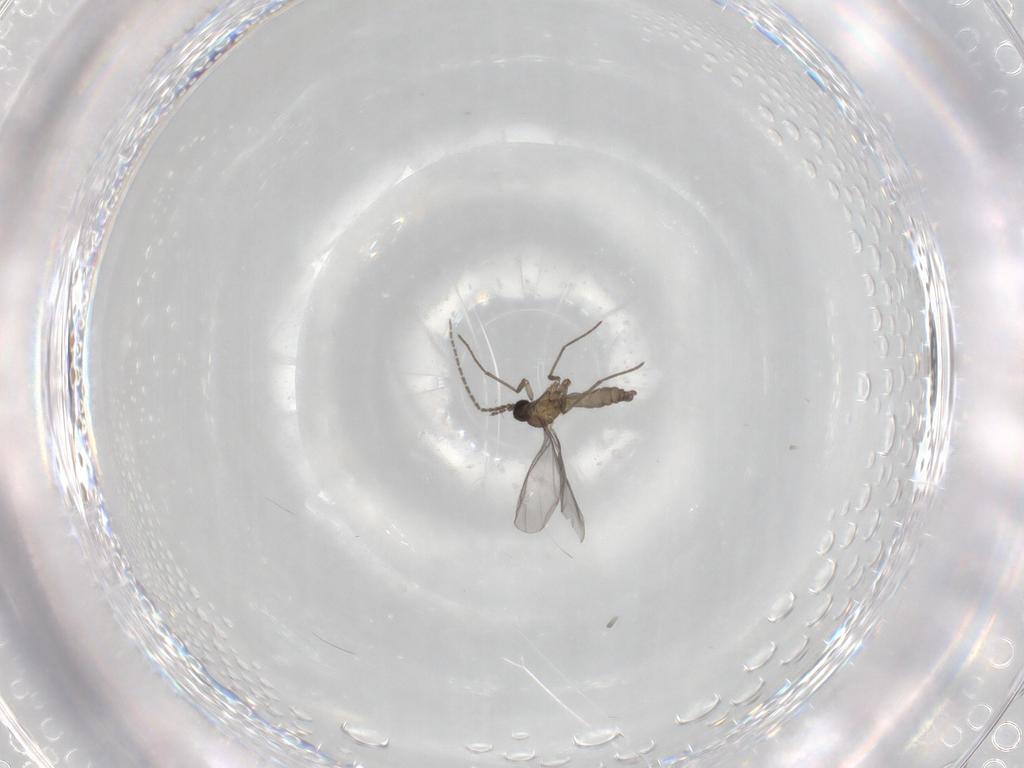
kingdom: Animalia
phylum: Arthropoda
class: Insecta
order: Diptera
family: Sciaridae
